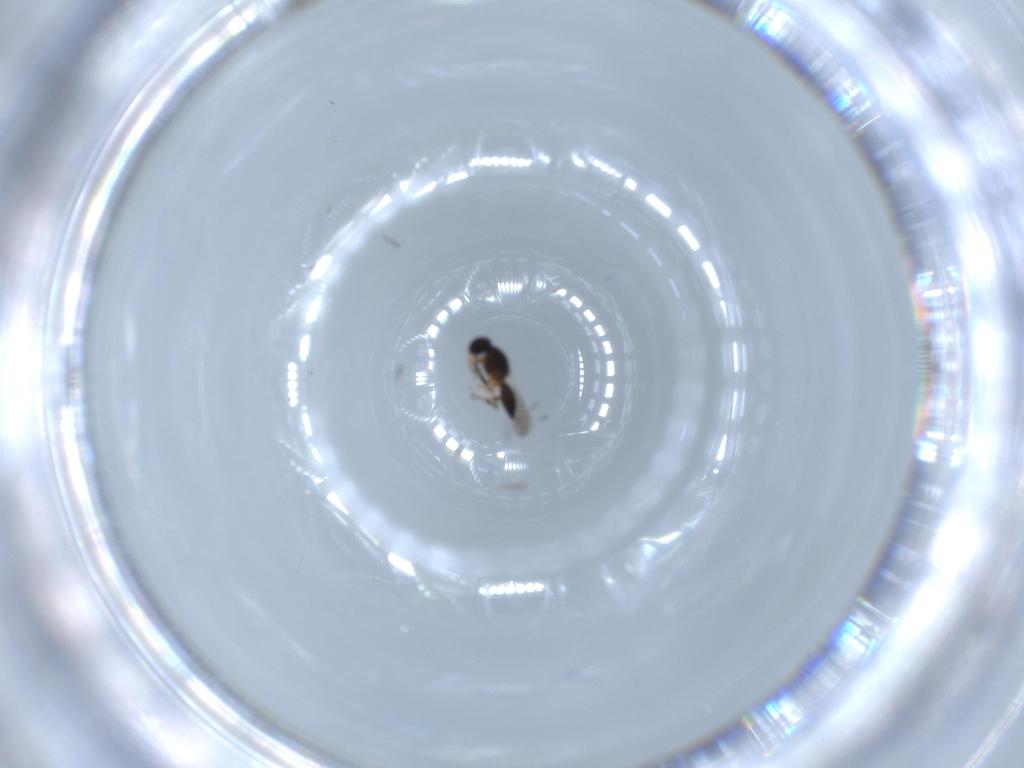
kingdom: Animalia
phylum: Arthropoda
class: Insecta
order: Hymenoptera
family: Platygastridae
